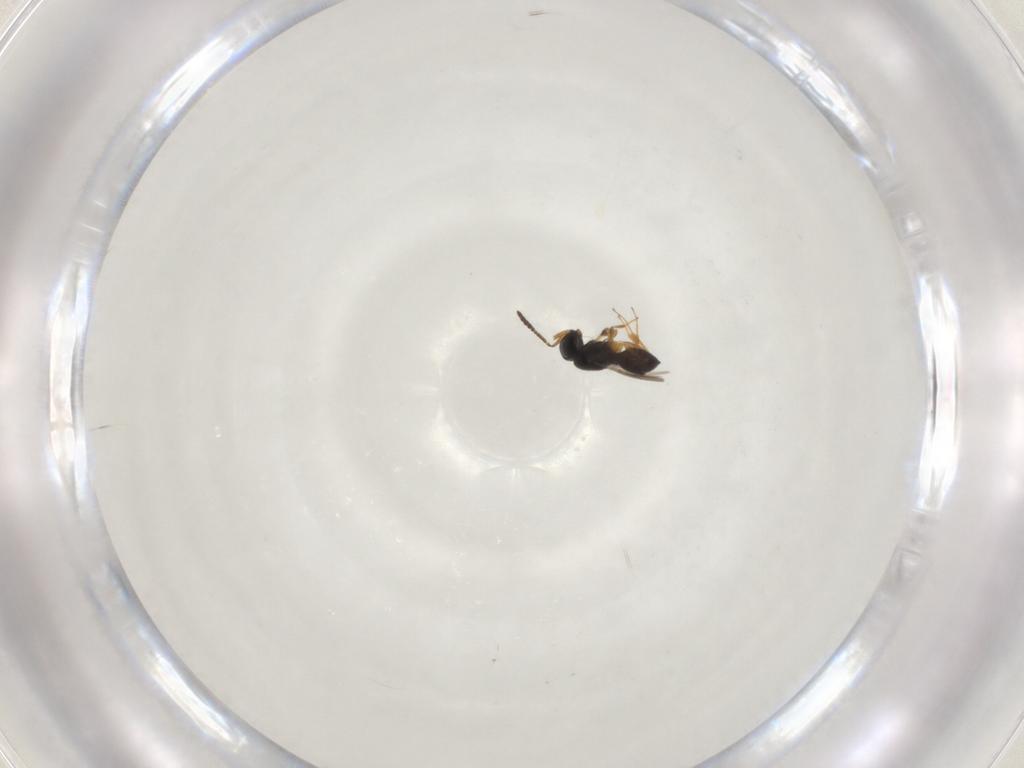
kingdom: Animalia
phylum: Arthropoda
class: Insecta
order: Hymenoptera
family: Scelionidae
